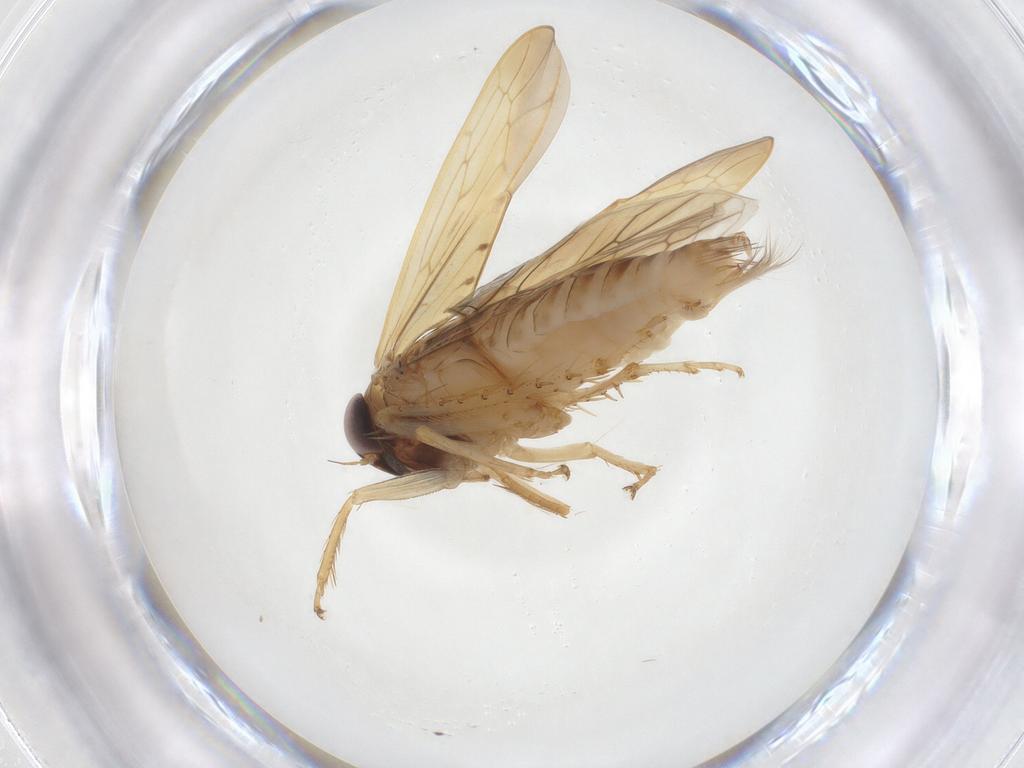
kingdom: Animalia
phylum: Arthropoda
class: Insecta
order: Hemiptera
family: Cicadellidae
